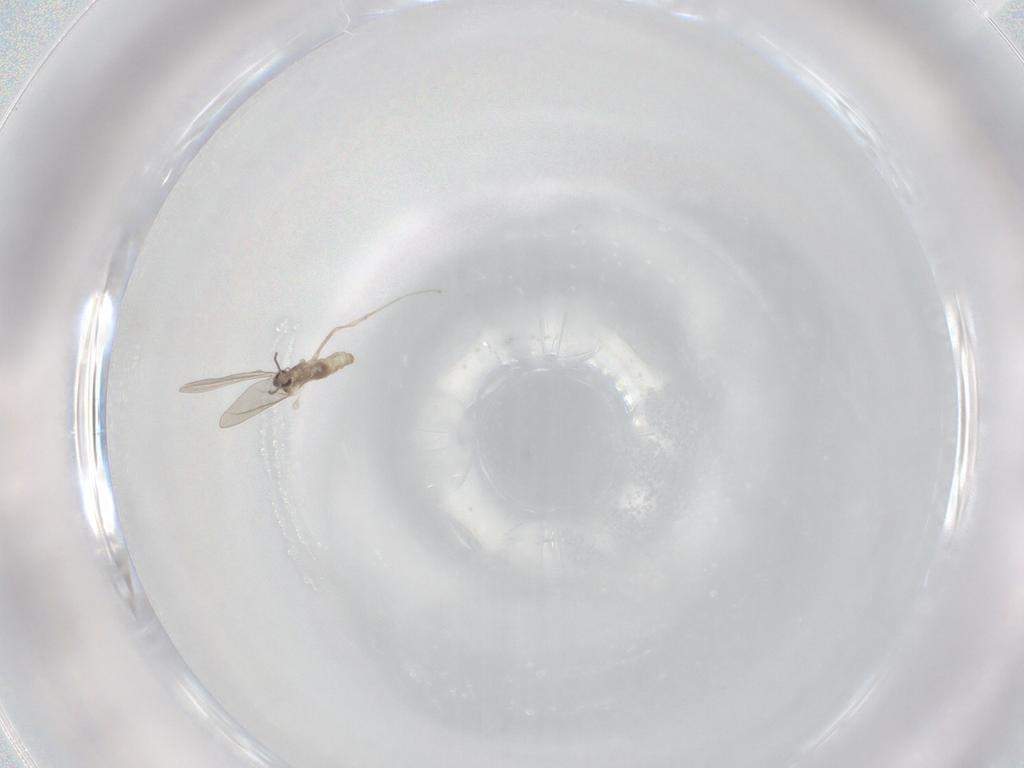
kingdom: Animalia
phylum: Arthropoda
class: Insecta
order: Diptera
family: Cecidomyiidae
